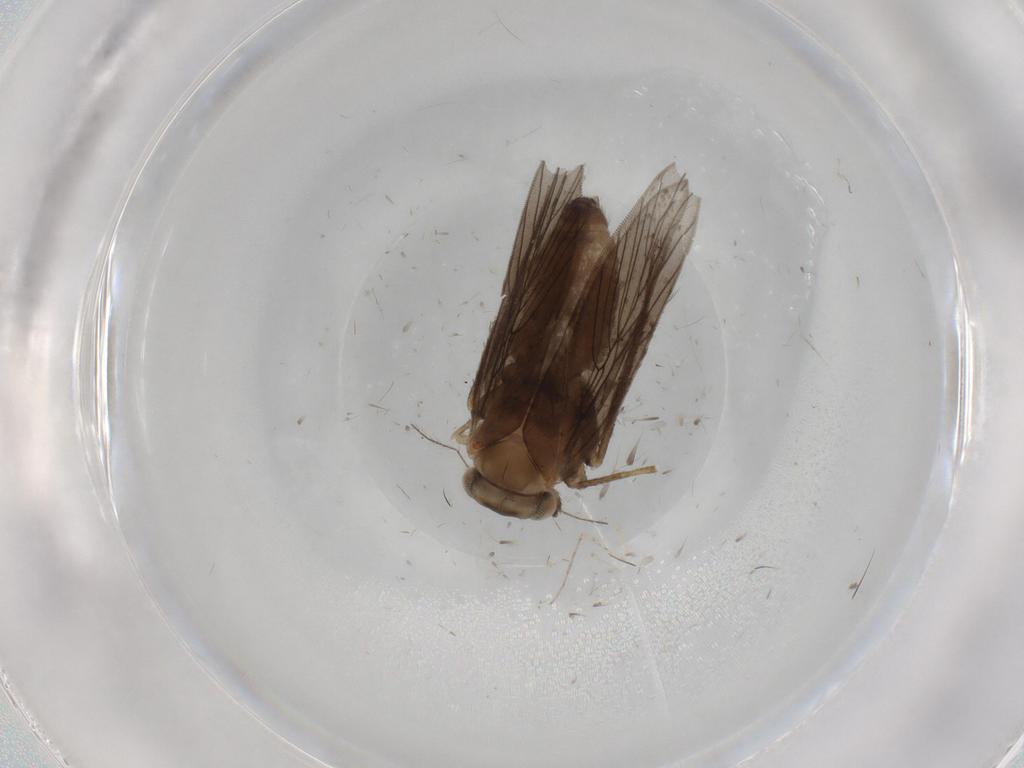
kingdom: Animalia
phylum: Arthropoda
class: Insecta
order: Psocodea
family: Lepidopsocidae
